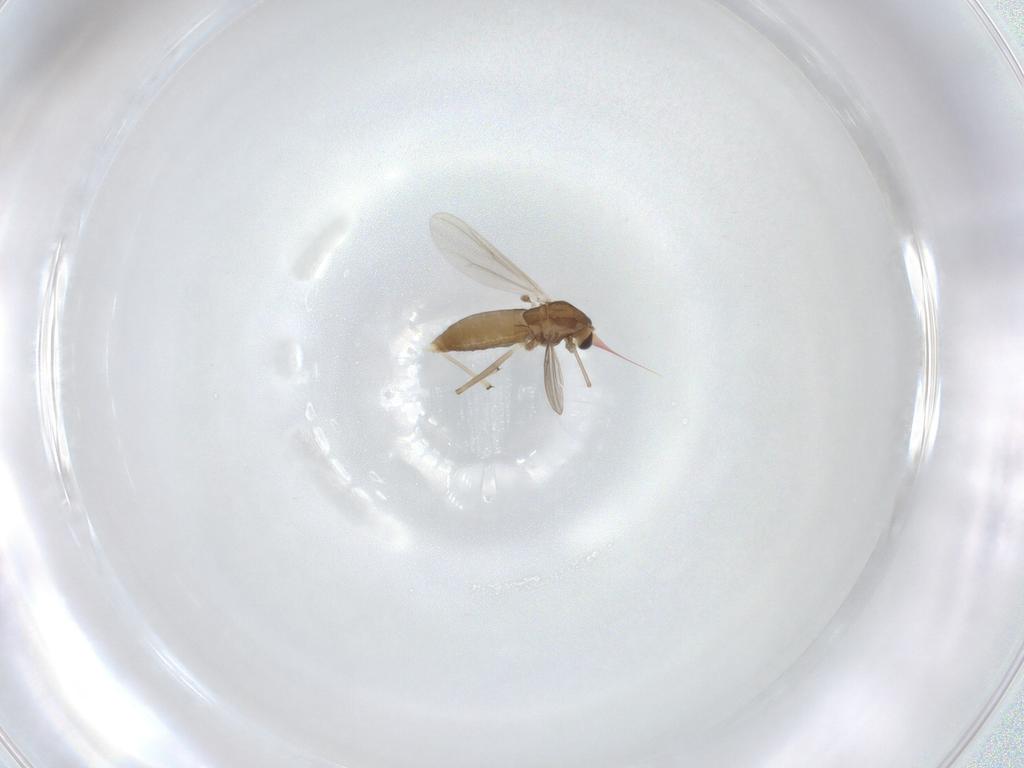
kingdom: Animalia
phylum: Arthropoda
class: Insecta
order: Diptera
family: Chironomidae
